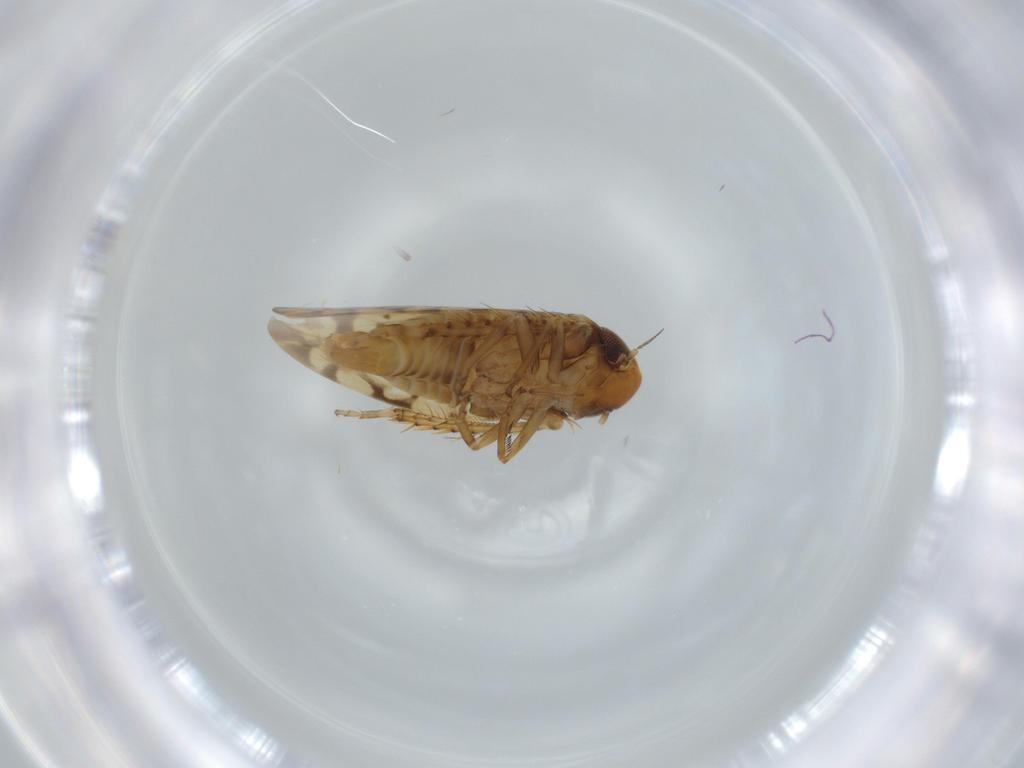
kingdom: Animalia
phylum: Arthropoda
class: Insecta
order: Hemiptera
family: Cicadellidae
